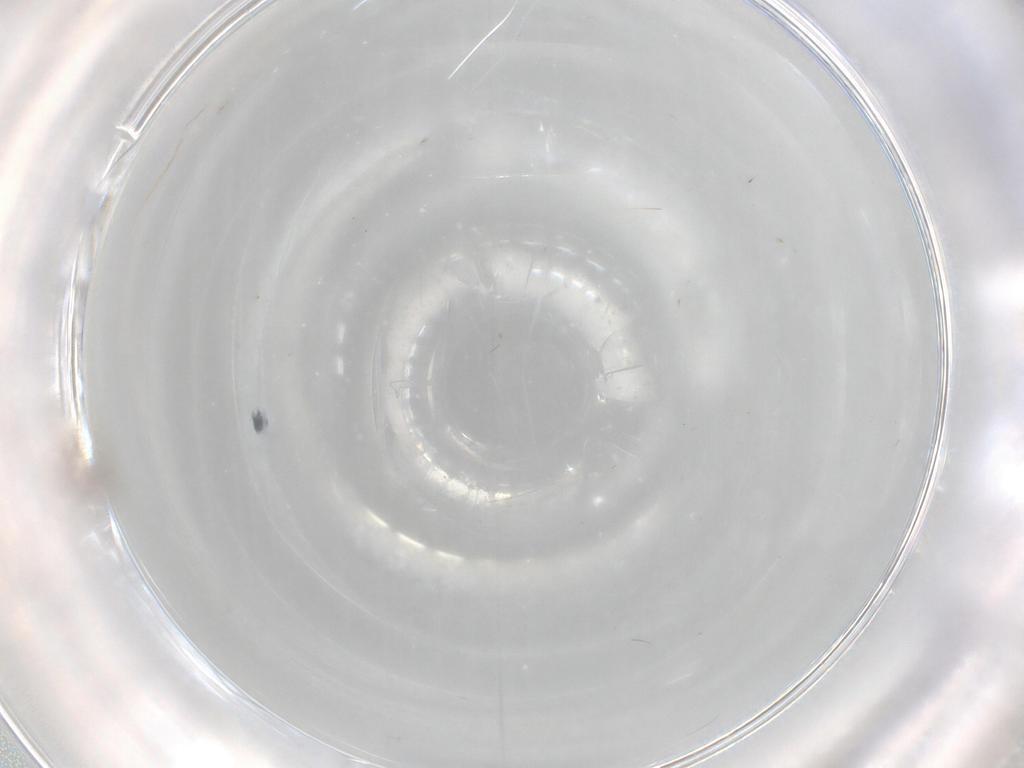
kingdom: Animalia
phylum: Arthropoda
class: Insecta
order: Diptera
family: Cecidomyiidae
